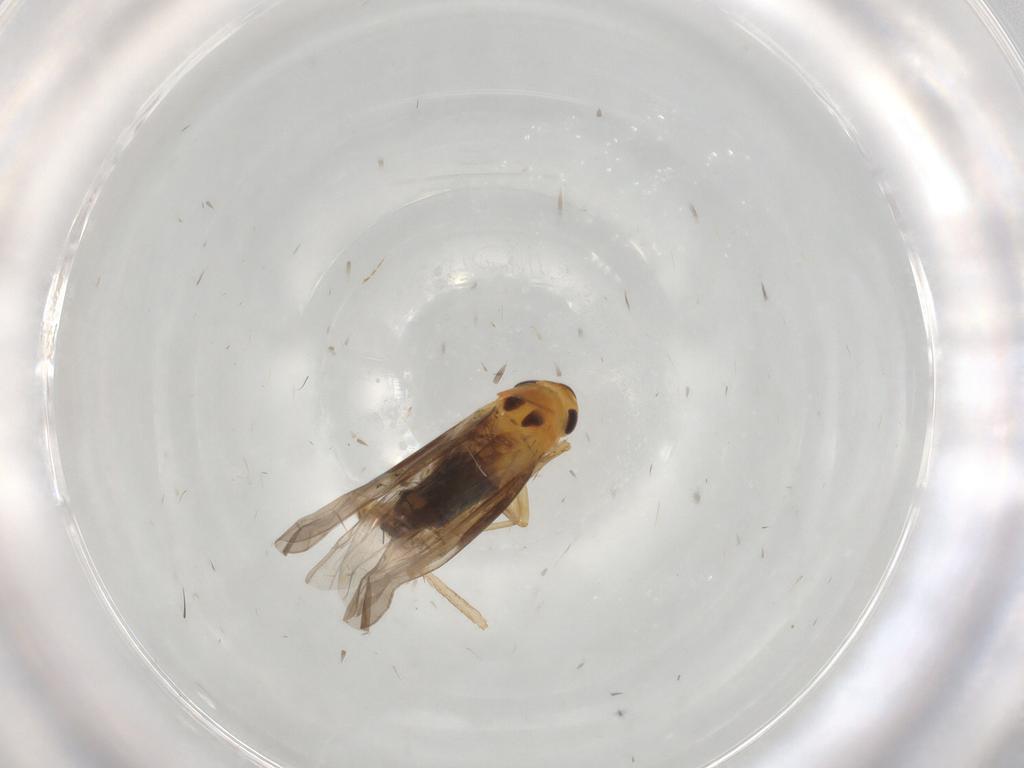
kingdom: Animalia
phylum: Arthropoda
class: Insecta
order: Hemiptera
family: Cicadellidae
